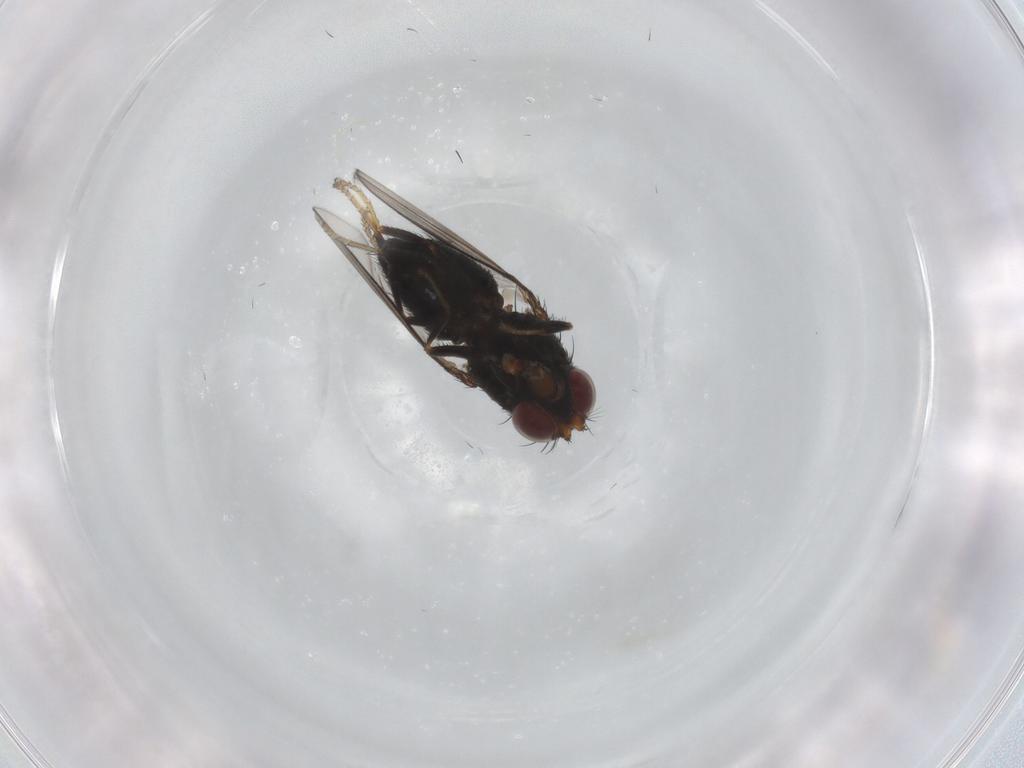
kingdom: Animalia
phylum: Arthropoda
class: Insecta
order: Diptera
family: Ephydridae
